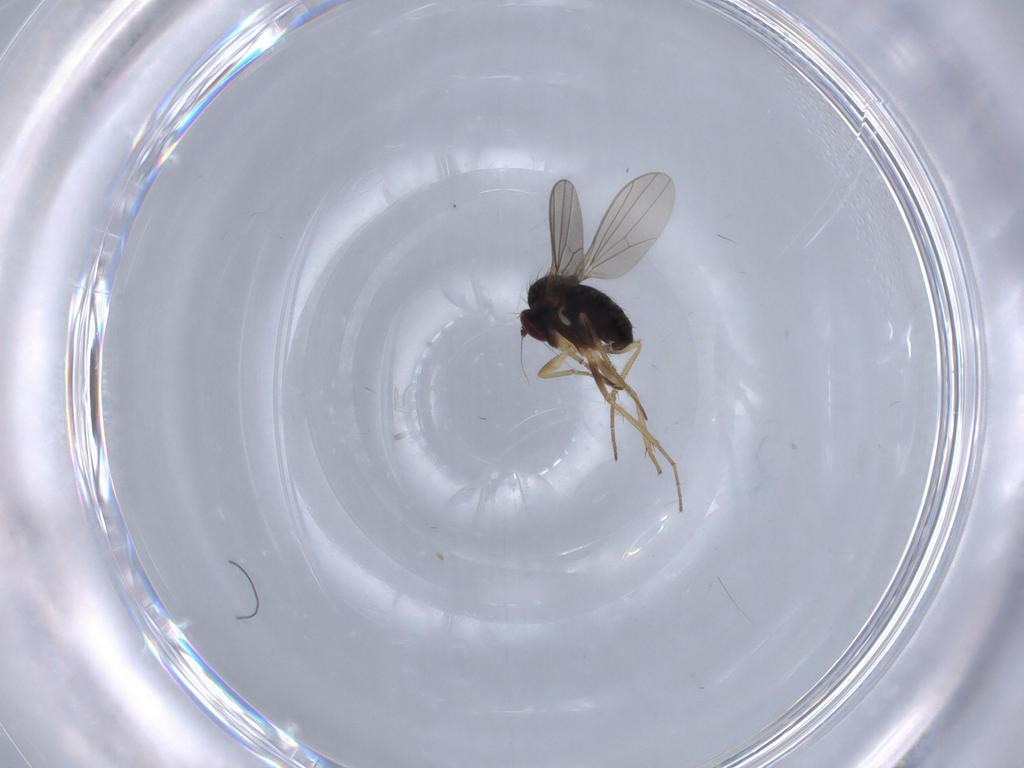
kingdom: Animalia
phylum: Arthropoda
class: Insecta
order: Diptera
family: Dolichopodidae
